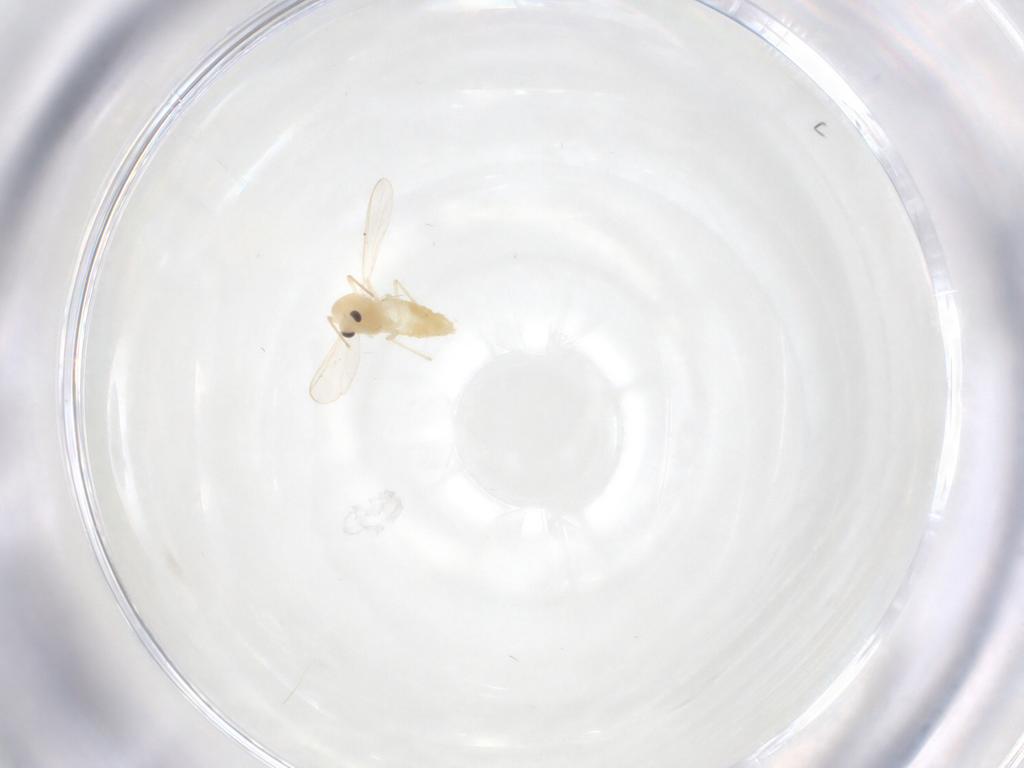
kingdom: Animalia
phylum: Arthropoda
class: Insecta
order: Diptera
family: Chironomidae
